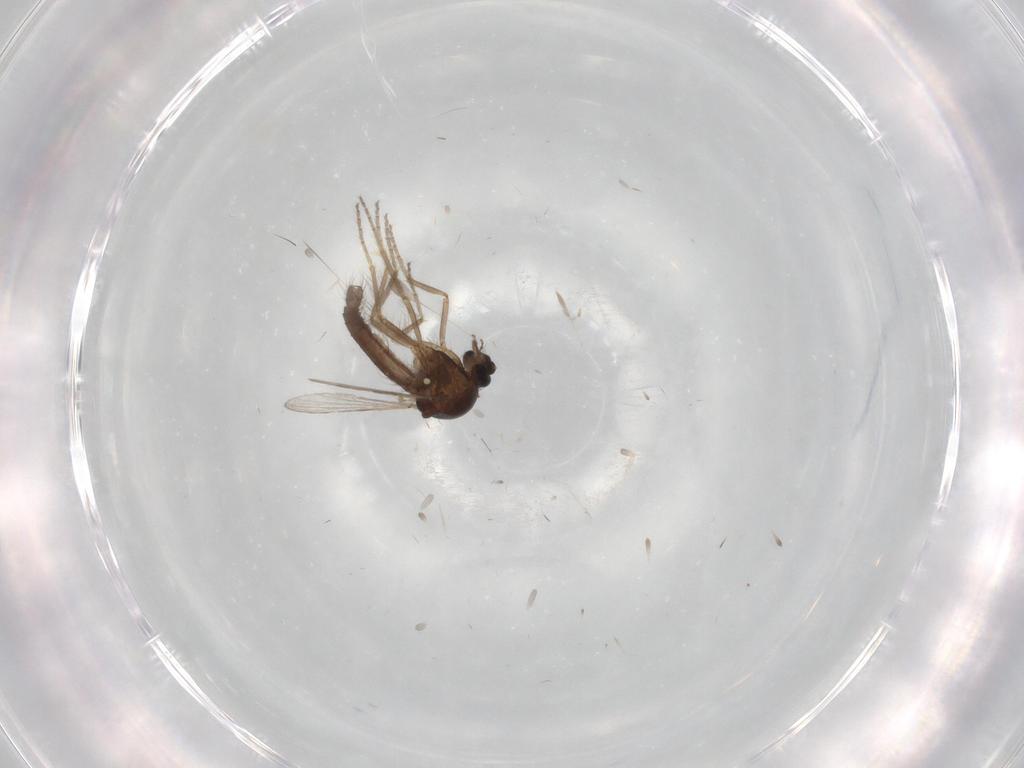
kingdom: Animalia
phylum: Arthropoda
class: Insecta
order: Diptera
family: Ceratopogonidae
